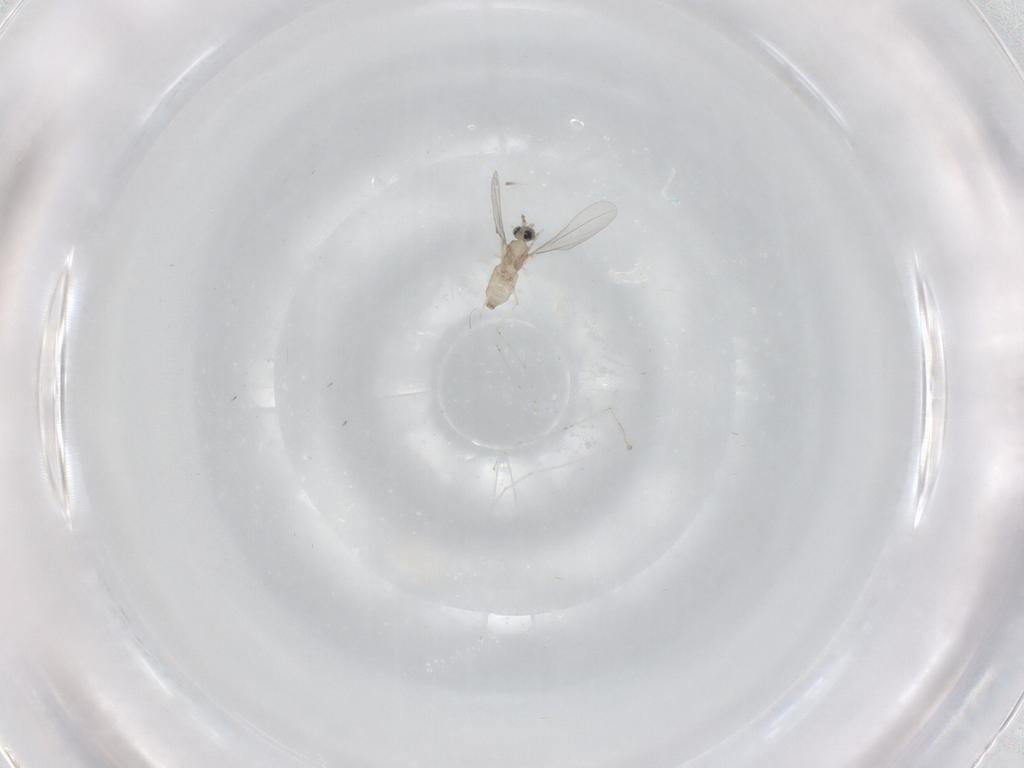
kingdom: Animalia
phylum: Arthropoda
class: Insecta
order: Diptera
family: Cecidomyiidae
